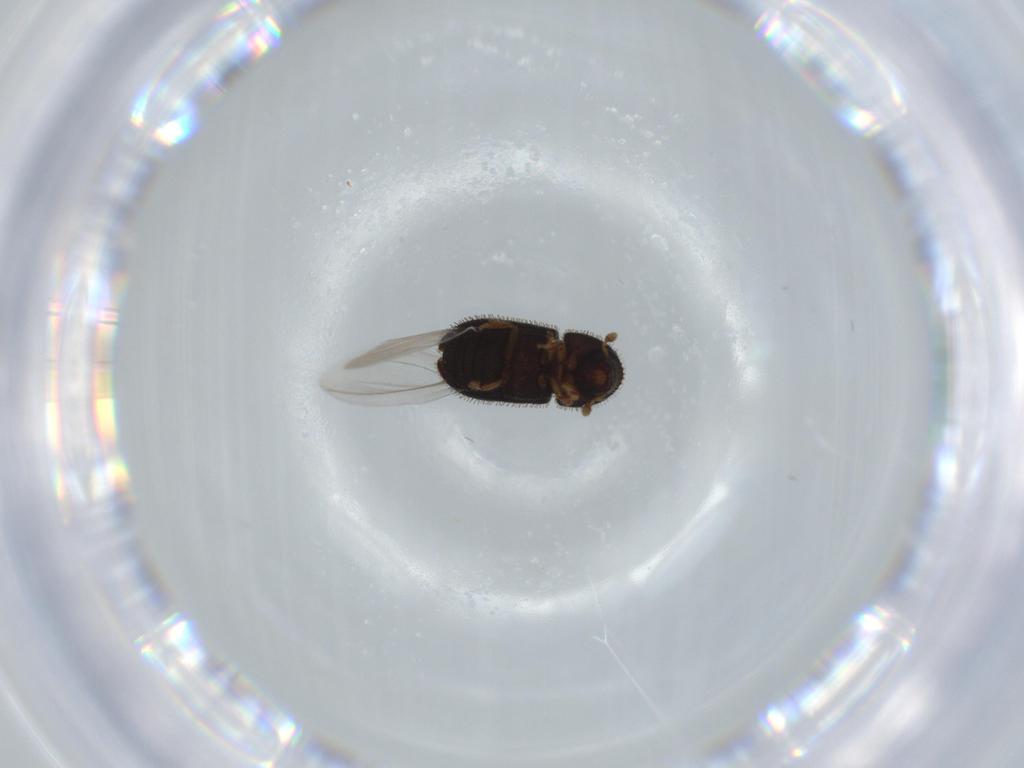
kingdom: Animalia
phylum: Arthropoda
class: Insecta
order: Coleoptera
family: Curculionidae
